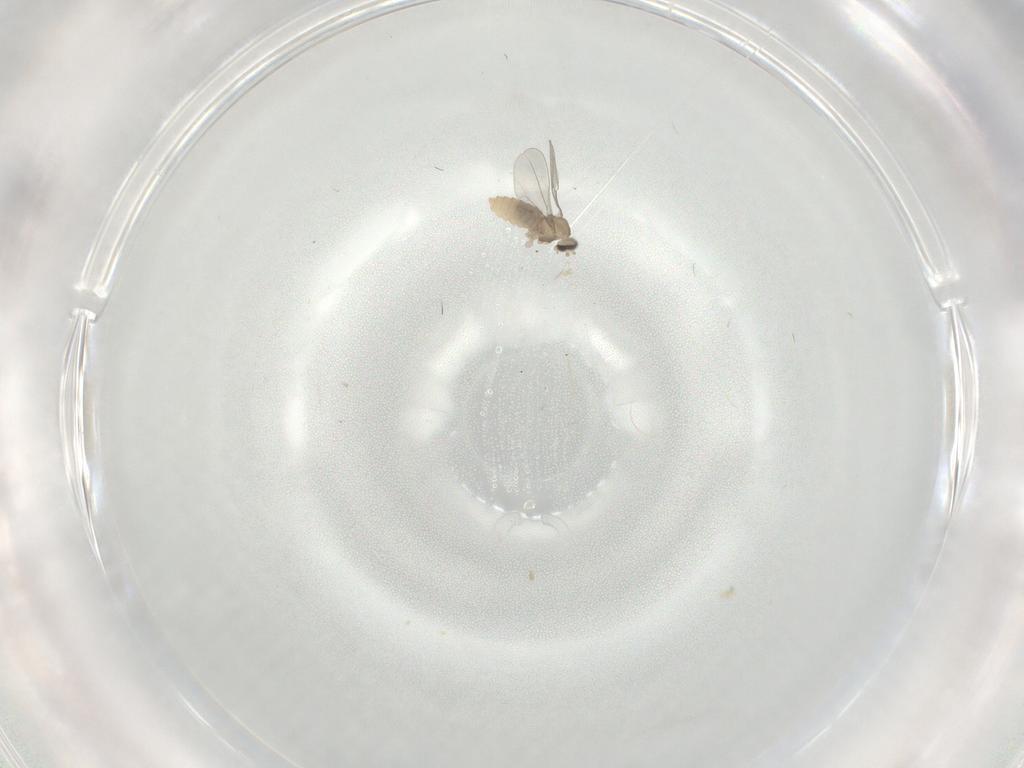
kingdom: Animalia
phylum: Arthropoda
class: Insecta
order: Diptera
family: Cecidomyiidae
